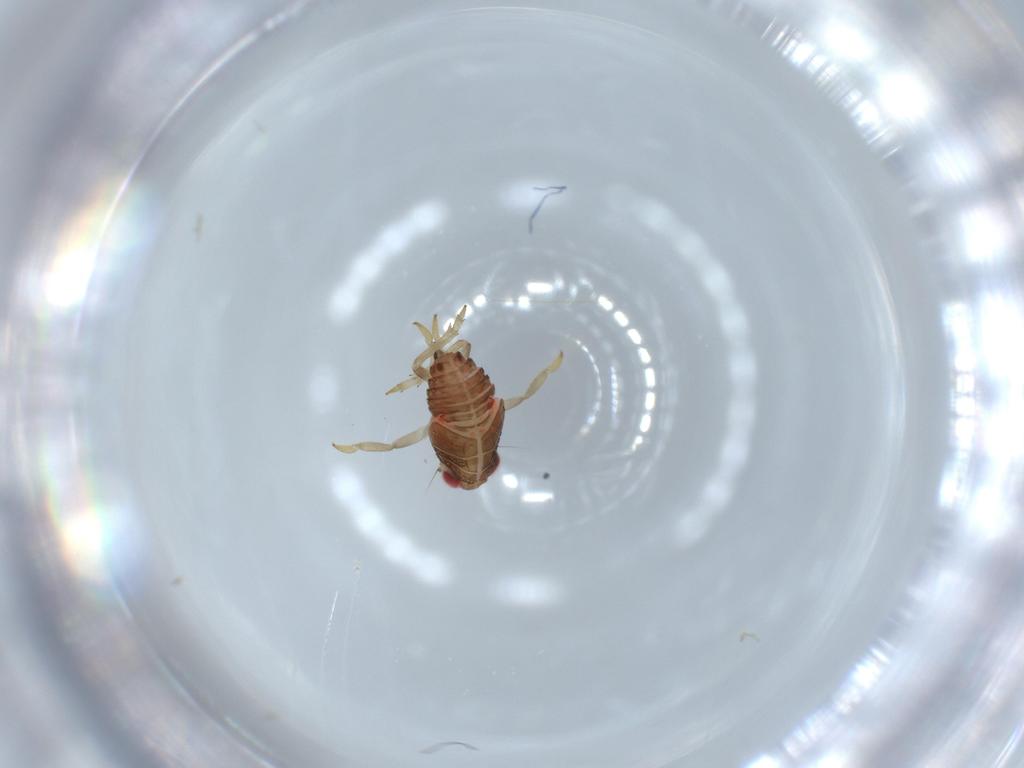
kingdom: Animalia
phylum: Arthropoda
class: Insecta
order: Hemiptera
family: Issidae
